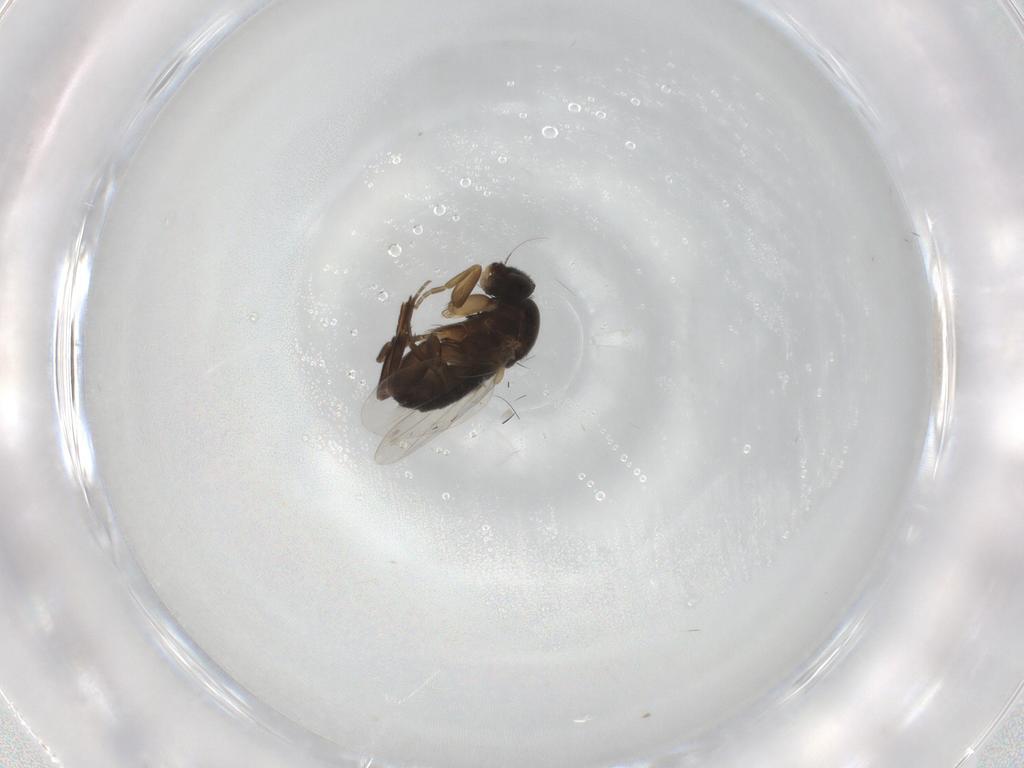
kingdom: Animalia
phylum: Arthropoda
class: Insecta
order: Diptera
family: Phoridae
